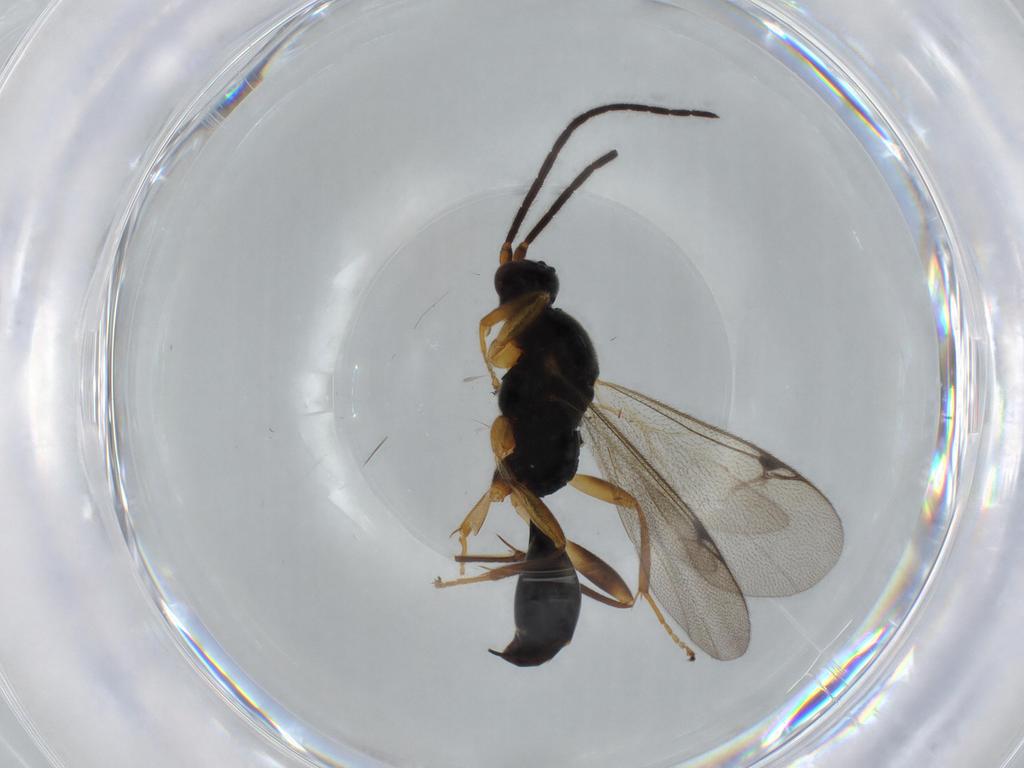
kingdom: Animalia
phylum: Arthropoda
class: Insecta
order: Hymenoptera
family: Proctotrupidae
